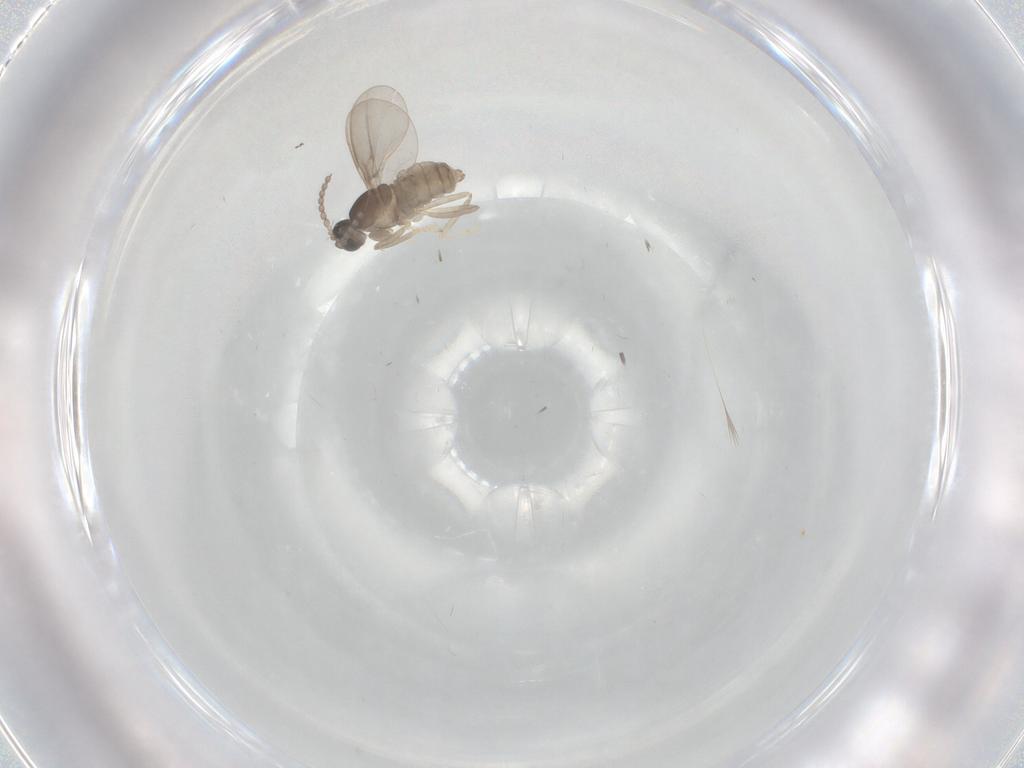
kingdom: Animalia
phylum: Arthropoda
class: Insecta
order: Diptera
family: Cecidomyiidae
